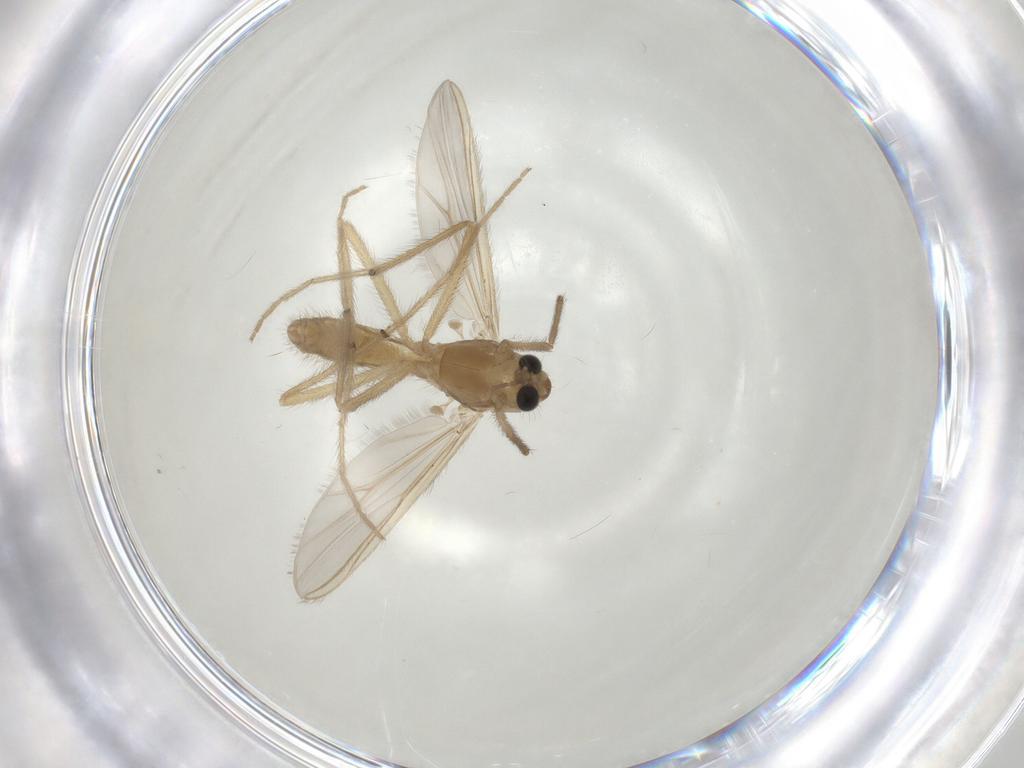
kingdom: Animalia
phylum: Arthropoda
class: Insecta
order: Diptera
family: Chironomidae
